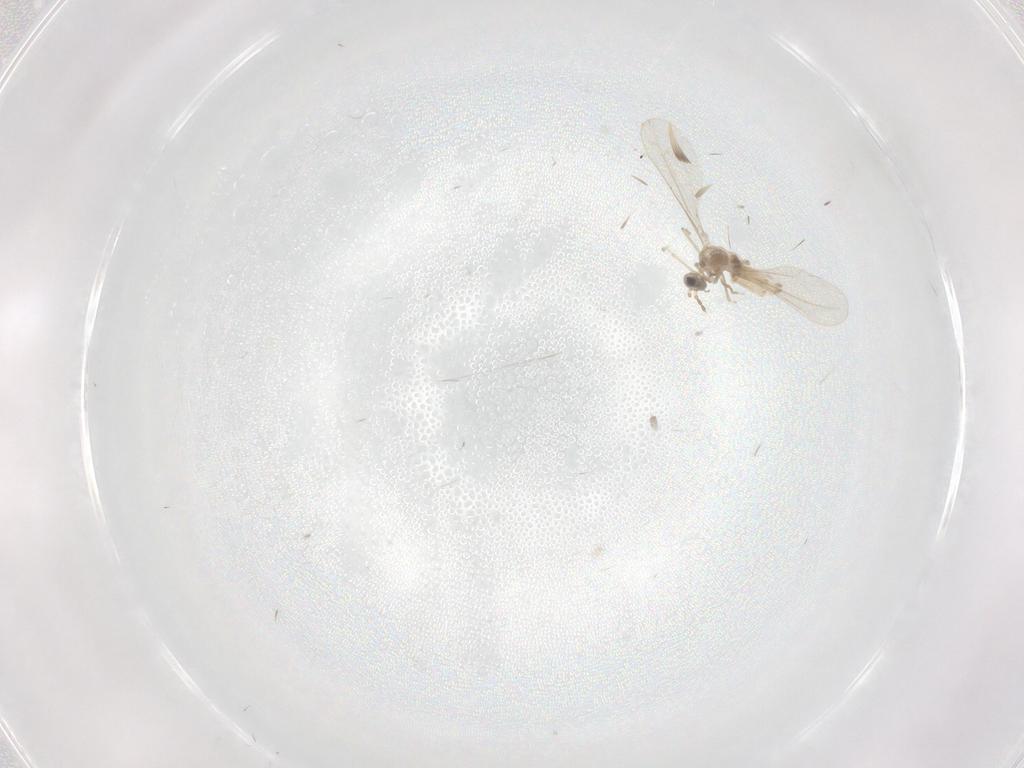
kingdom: Animalia
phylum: Arthropoda
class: Insecta
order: Diptera
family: Cecidomyiidae
